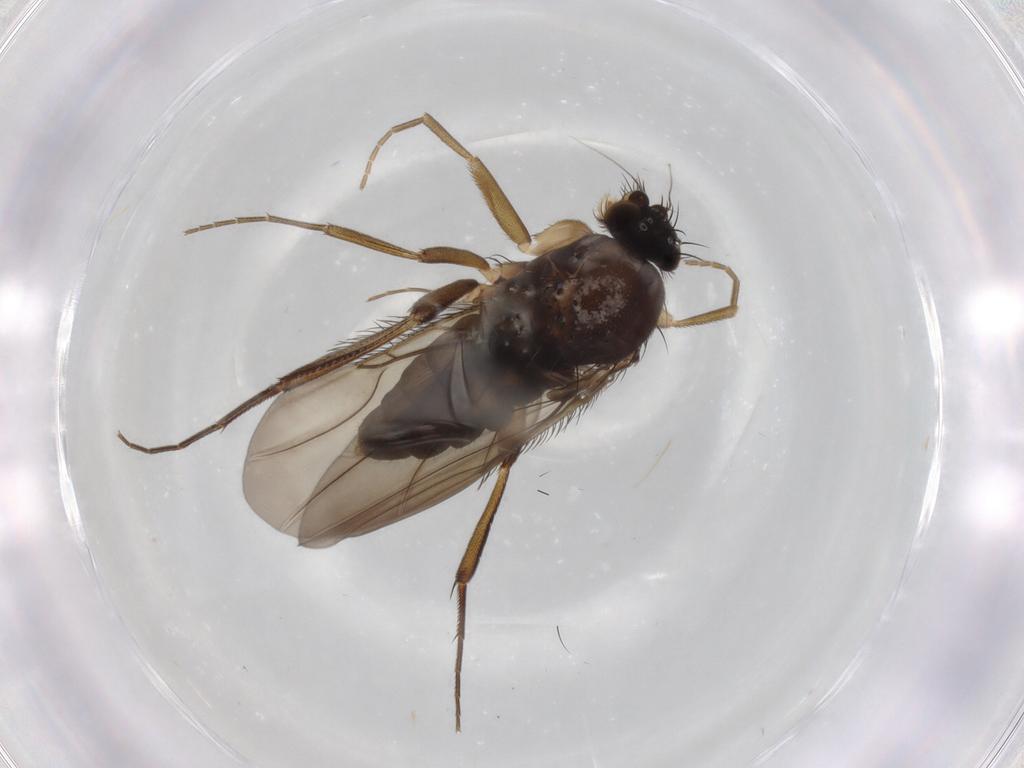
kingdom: Animalia
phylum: Arthropoda
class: Insecta
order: Diptera
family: Phoridae
